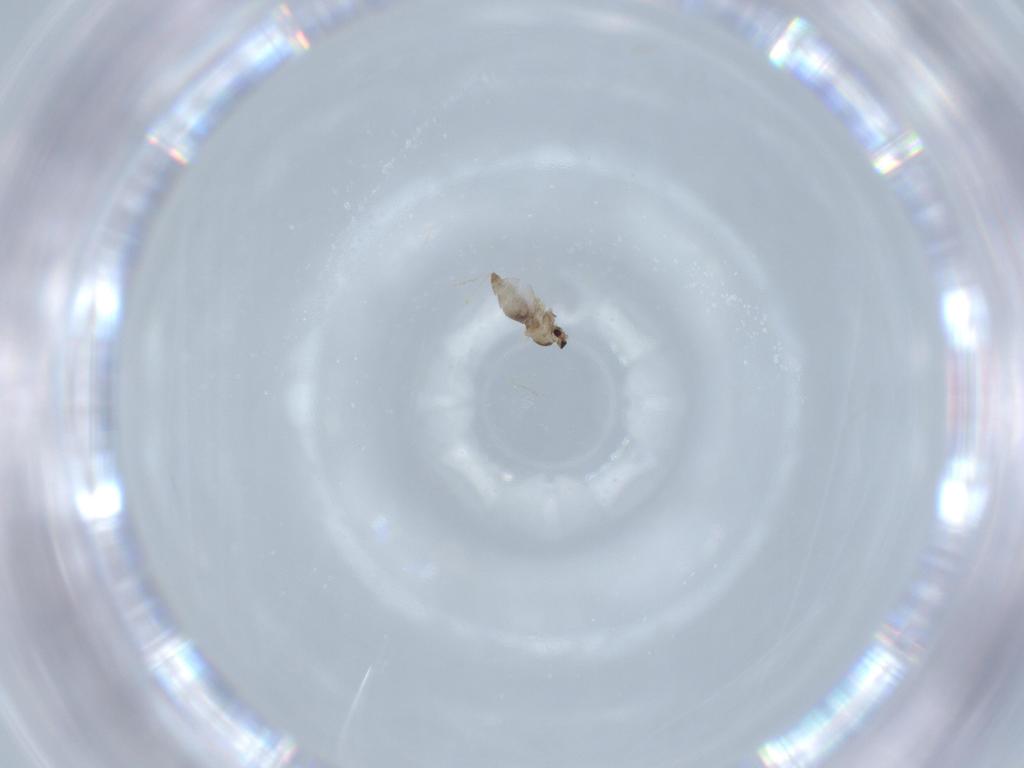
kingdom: Animalia
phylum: Arthropoda
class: Insecta
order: Diptera
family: Cecidomyiidae
